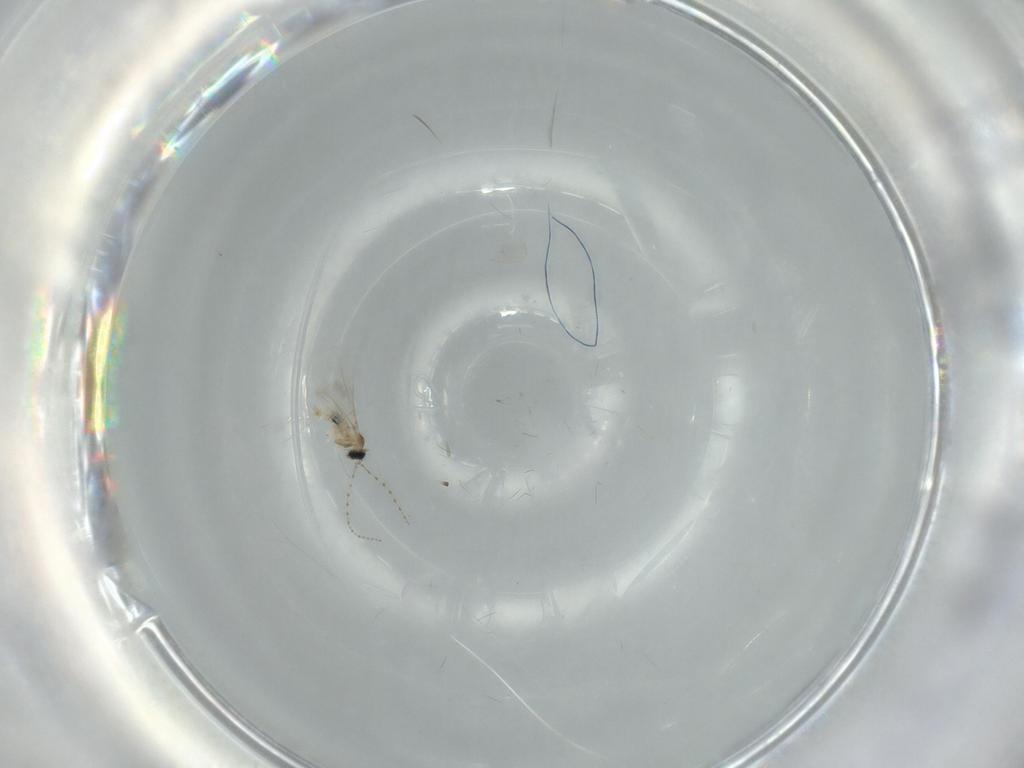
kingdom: Animalia
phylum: Arthropoda
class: Insecta
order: Diptera
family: Cecidomyiidae
